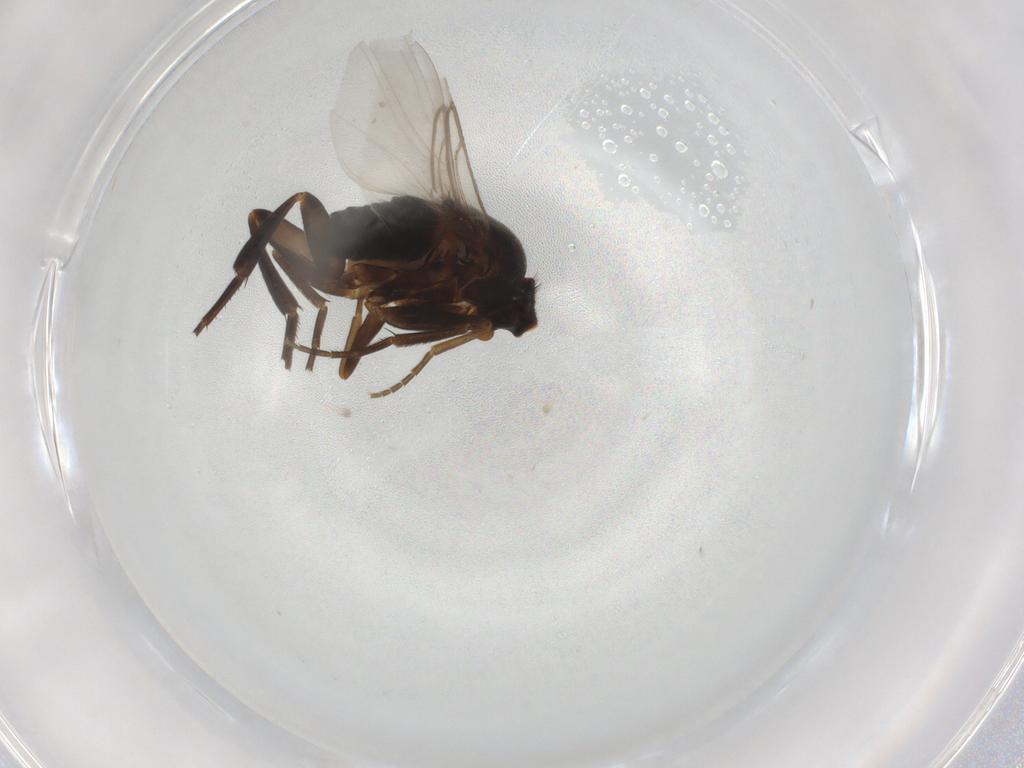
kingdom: Animalia
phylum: Arthropoda
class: Insecta
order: Diptera
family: Phoridae
